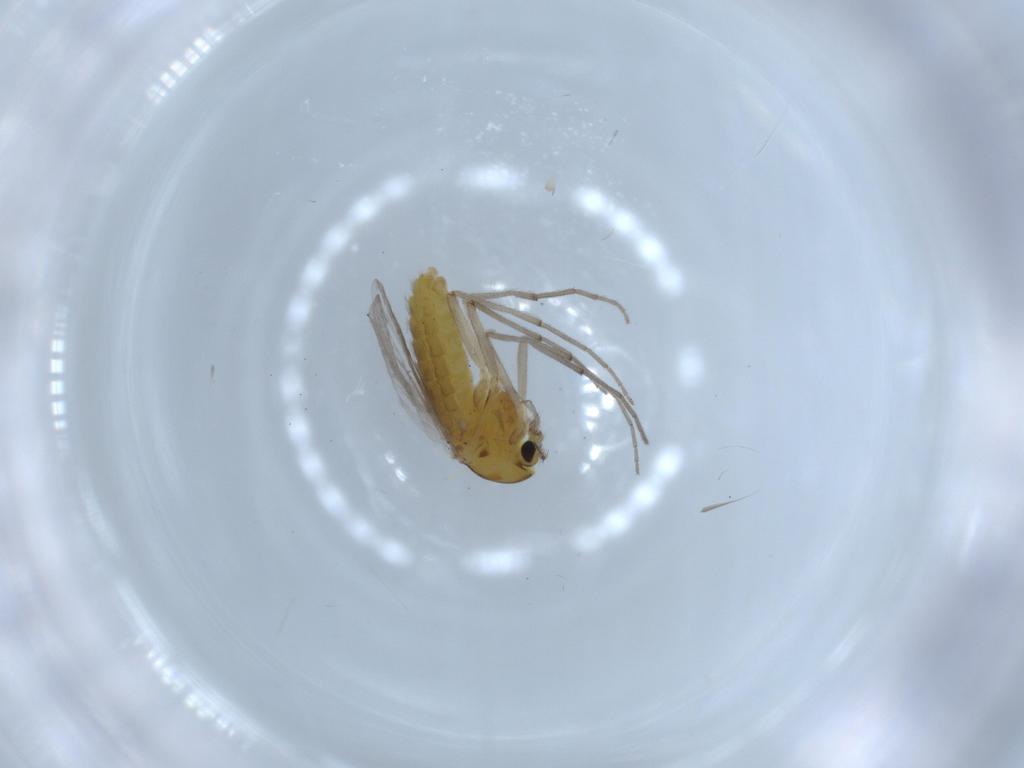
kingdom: Animalia
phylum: Arthropoda
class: Insecta
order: Diptera
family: Chironomidae
